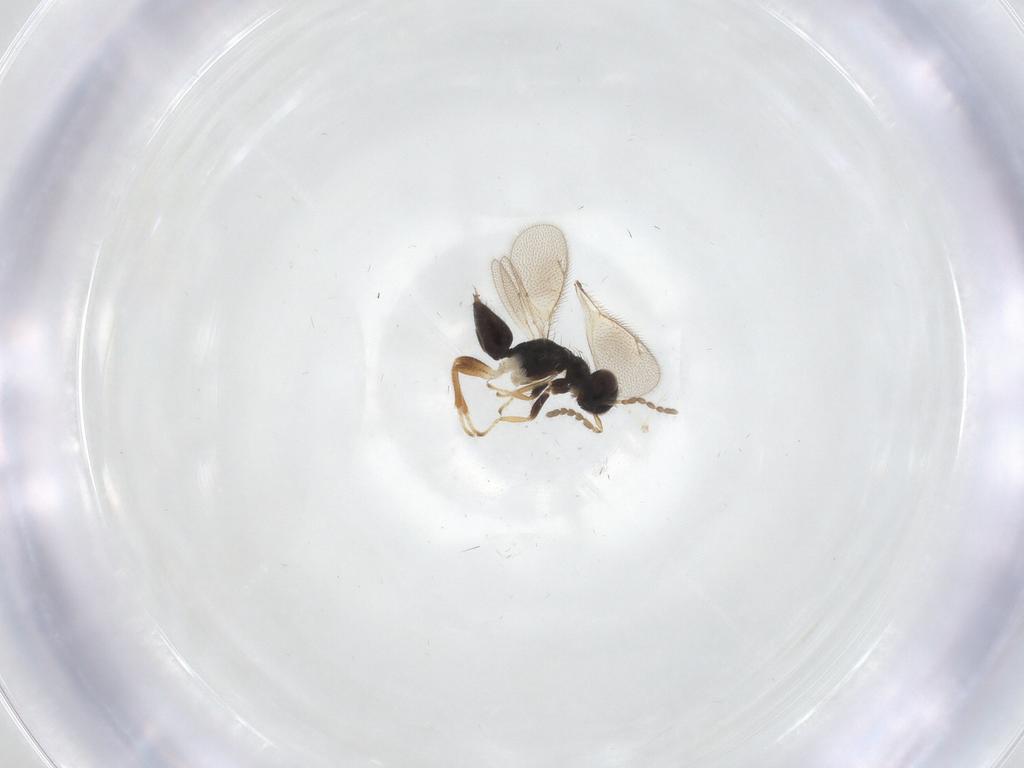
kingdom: Animalia
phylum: Arthropoda
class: Insecta
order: Hymenoptera
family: Eulophidae
